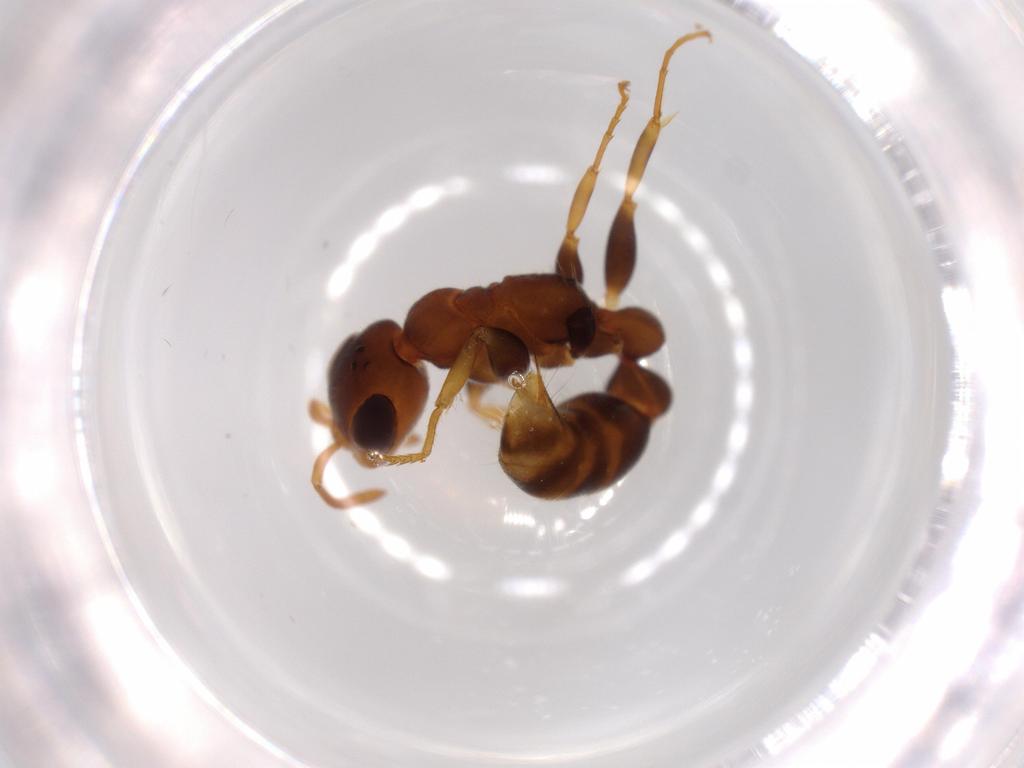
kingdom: Animalia
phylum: Arthropoda
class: Insecta
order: Hymenoptera
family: Formicidae
